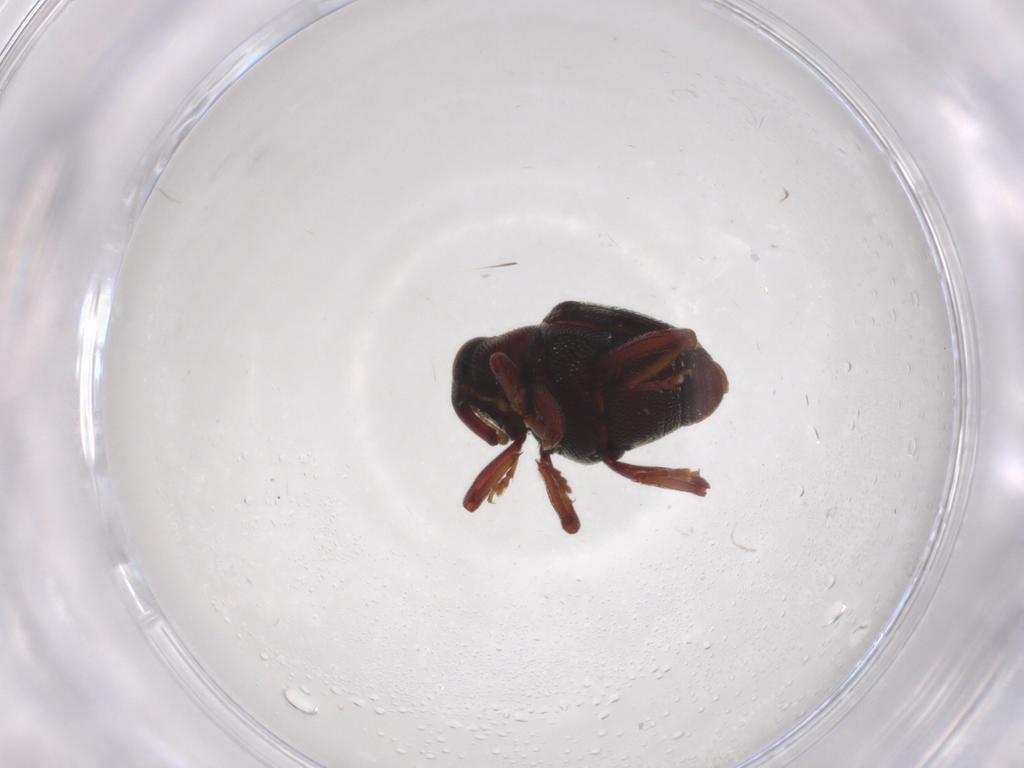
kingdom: Animalia
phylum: Arthropoda
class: Insecta
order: Coleoptera
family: Curculionidae
